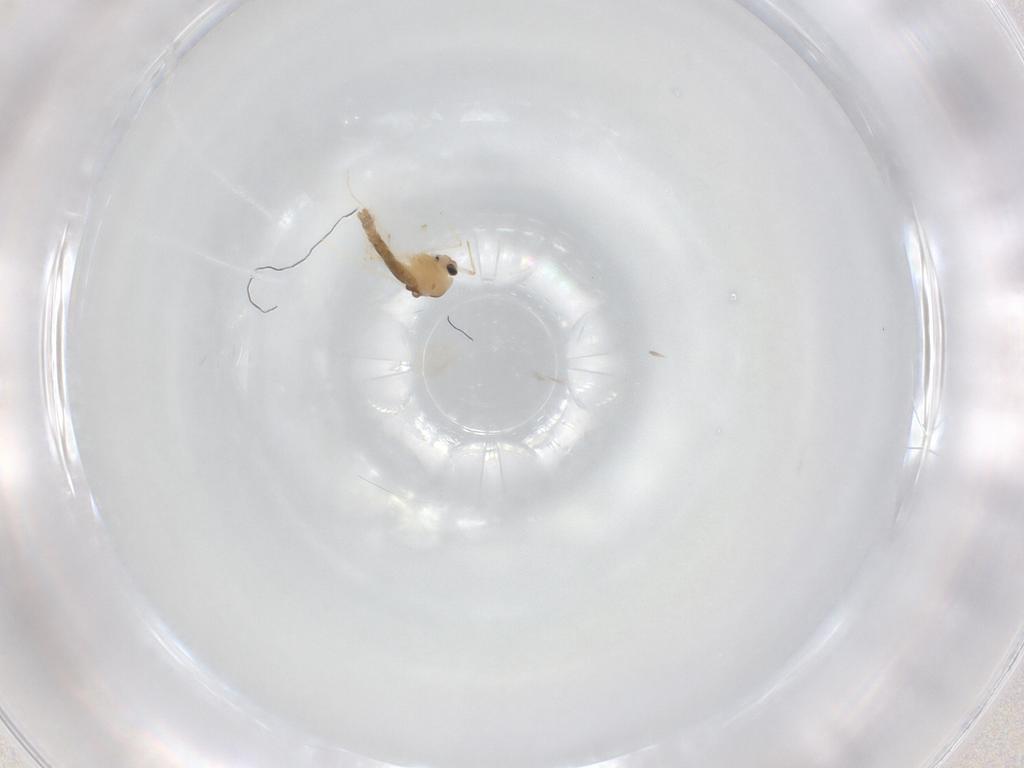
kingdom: Animalia
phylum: Arthropoda
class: Insecta
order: Diptera
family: Chironomidae
